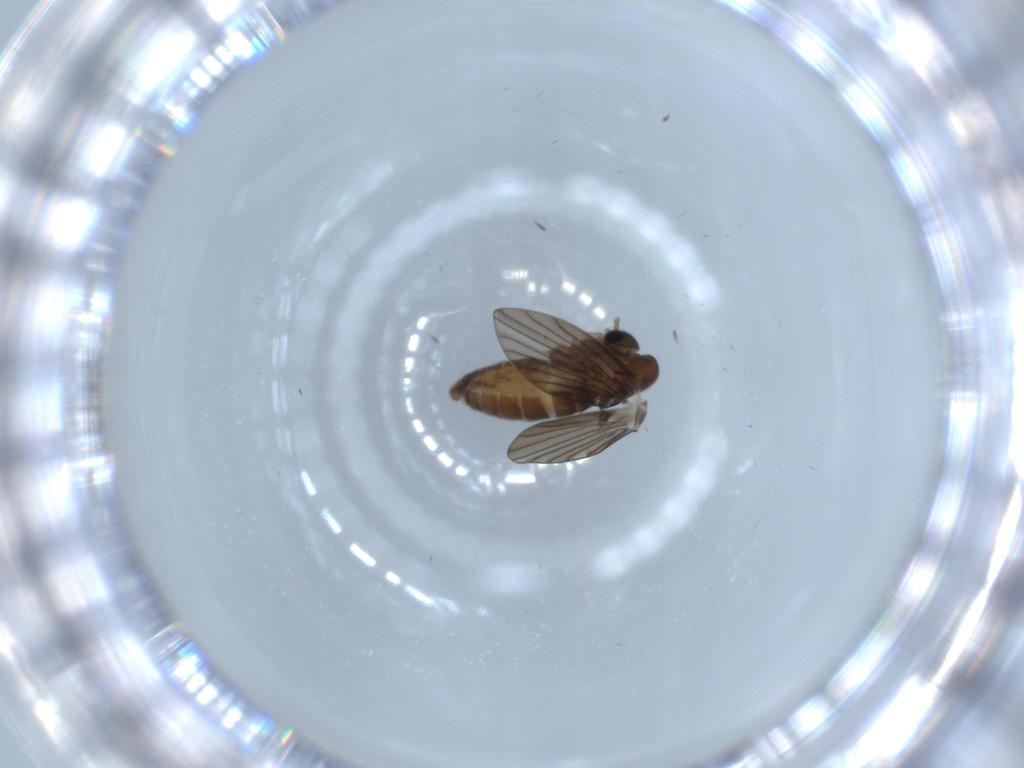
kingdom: Animalia
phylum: Arthropoda
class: Insecta
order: Diptera
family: Psychodidae
